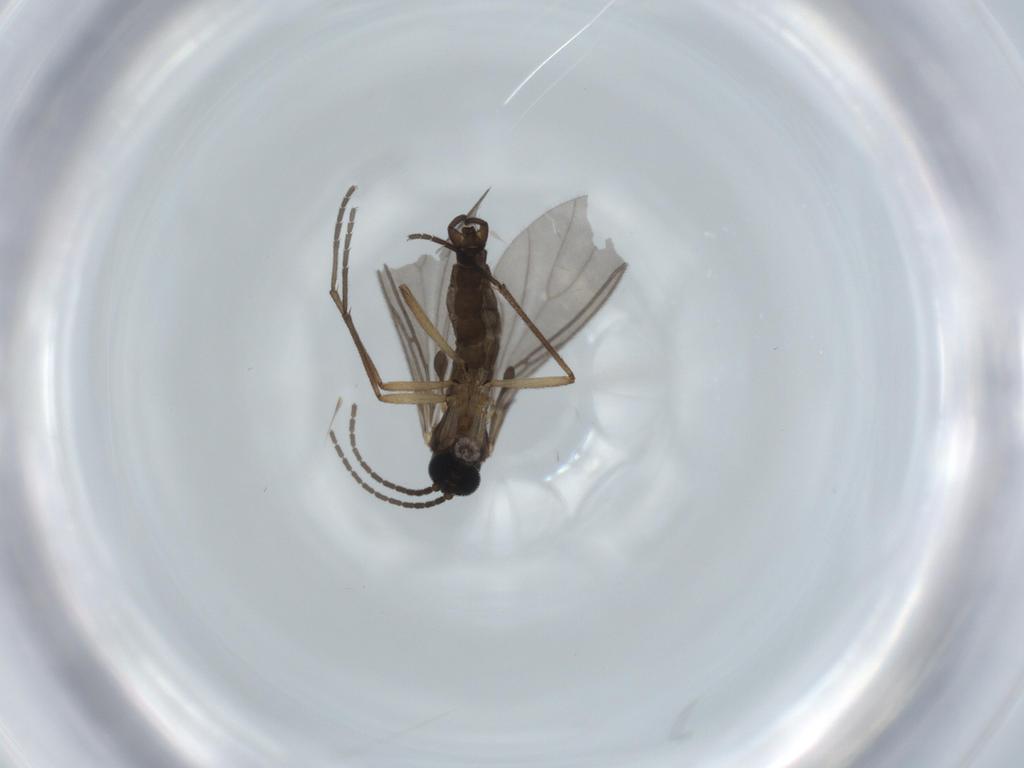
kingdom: Animalia
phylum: Arthropoda
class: Insecta
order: Diptera
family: Sciaridae
